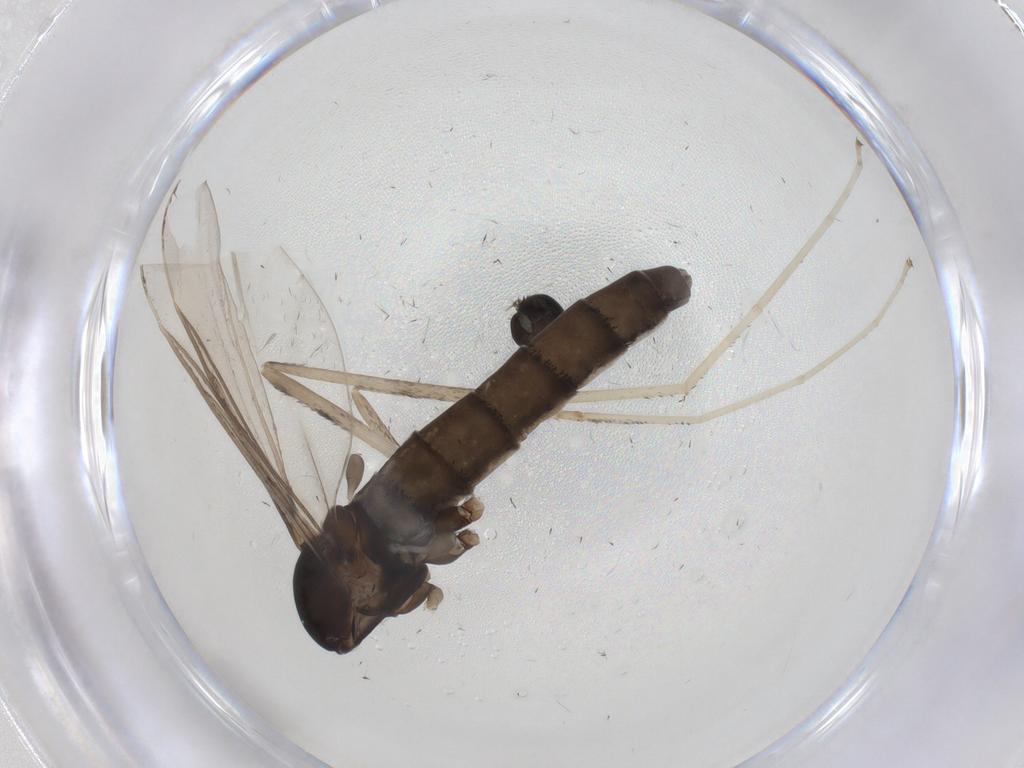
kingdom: Animalia
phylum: Arthropoda
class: Insecta
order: Diptera
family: Cecidomyiidae
